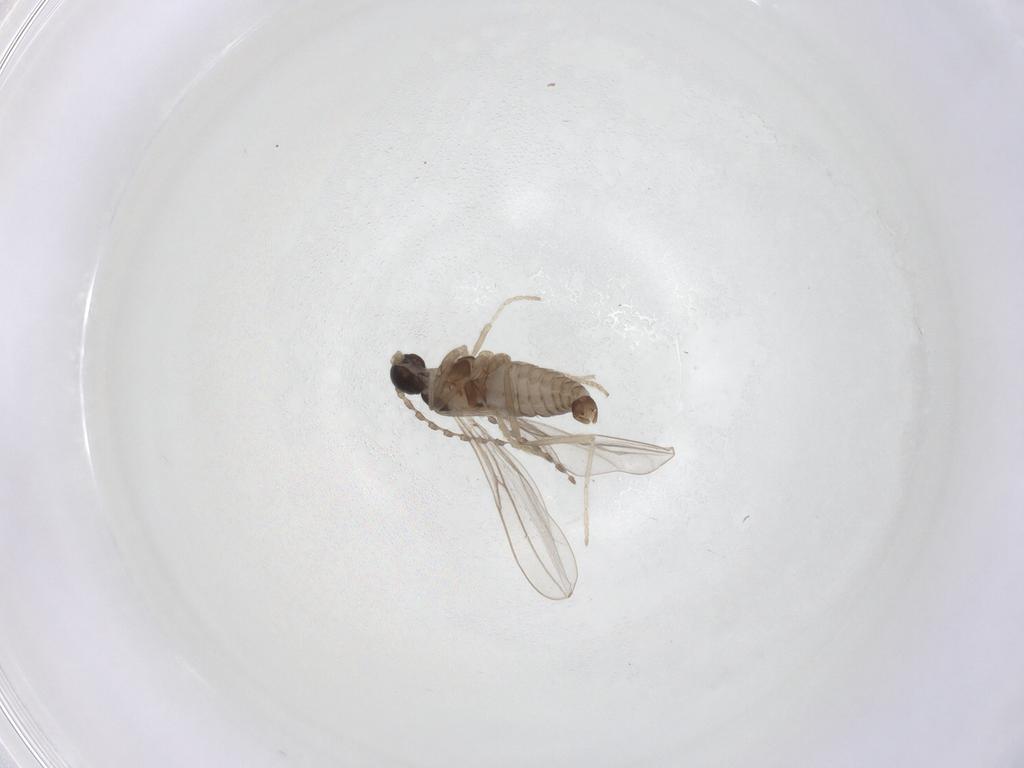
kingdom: Animalia
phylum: Arthropoda
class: Insecta
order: Diptera
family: Cecidomyiidae
